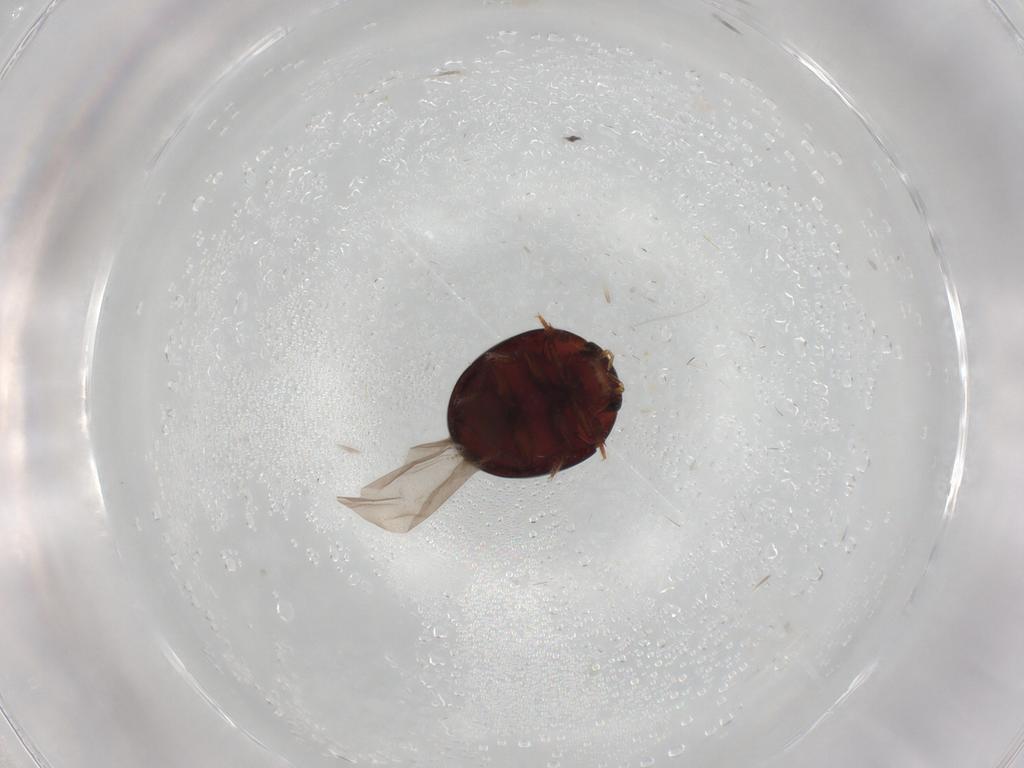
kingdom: Animalia
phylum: Arthropoda
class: Insecta
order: Coleoptera
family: Hydrophilidae
